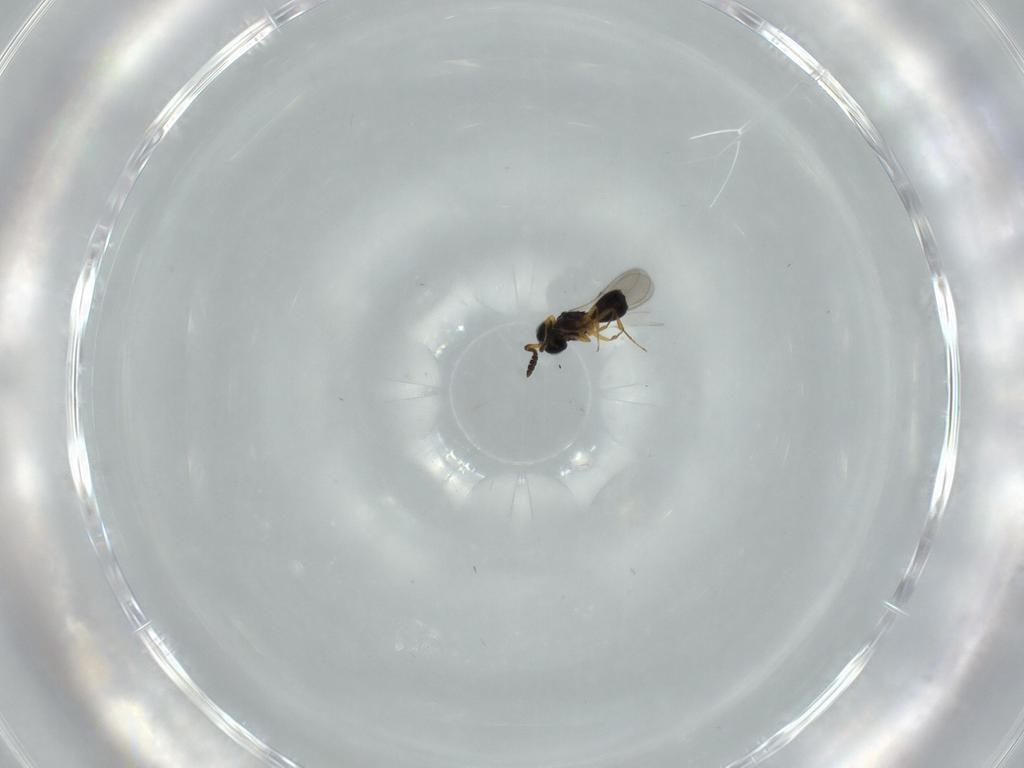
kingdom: Animalia
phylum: Arthropoda
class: Insecta
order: Hymenoptera
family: Scelionidae
